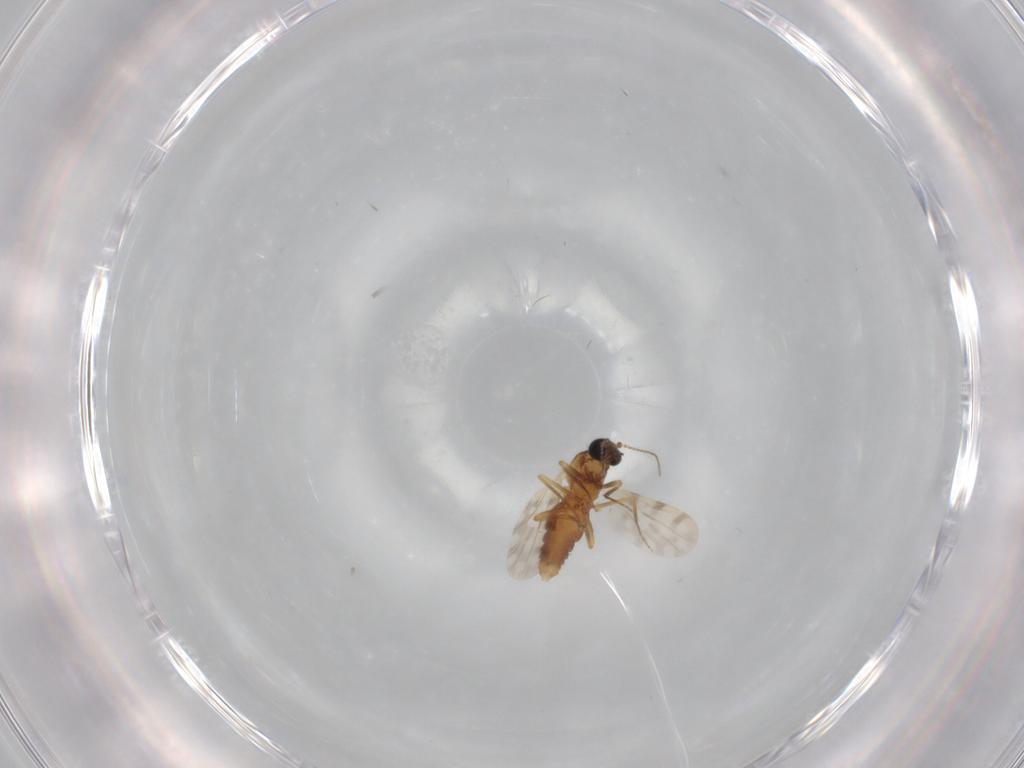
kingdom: Animalia
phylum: Arthropoda
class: Insecta
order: Diptera
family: Ceratopogonidae
